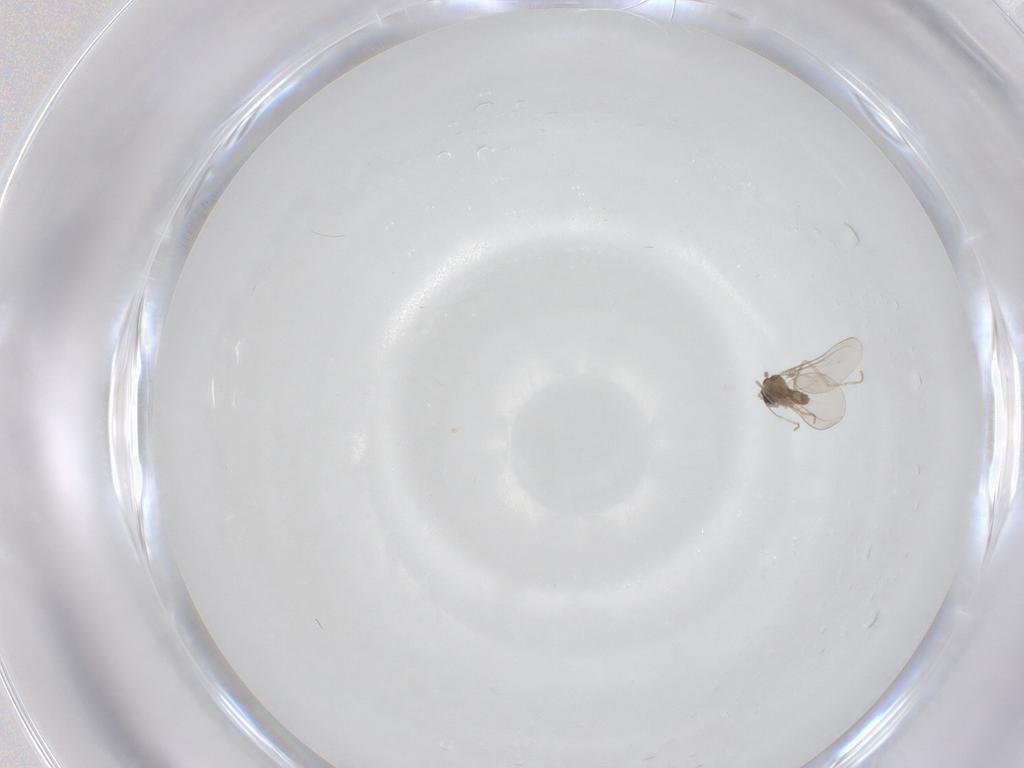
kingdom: Animalia
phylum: Arthropoda
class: Insecta
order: Diptera
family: Cecidomyiidae
